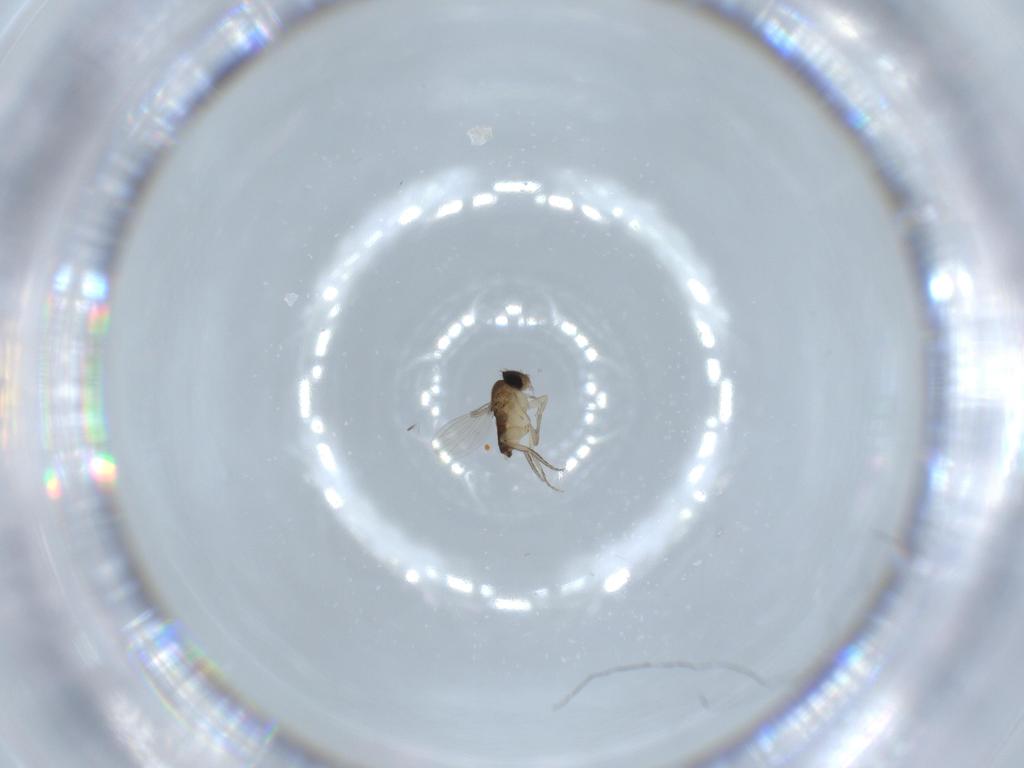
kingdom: Animalia
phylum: Arthropoda
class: Insecta
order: Diptera
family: Phoridae
